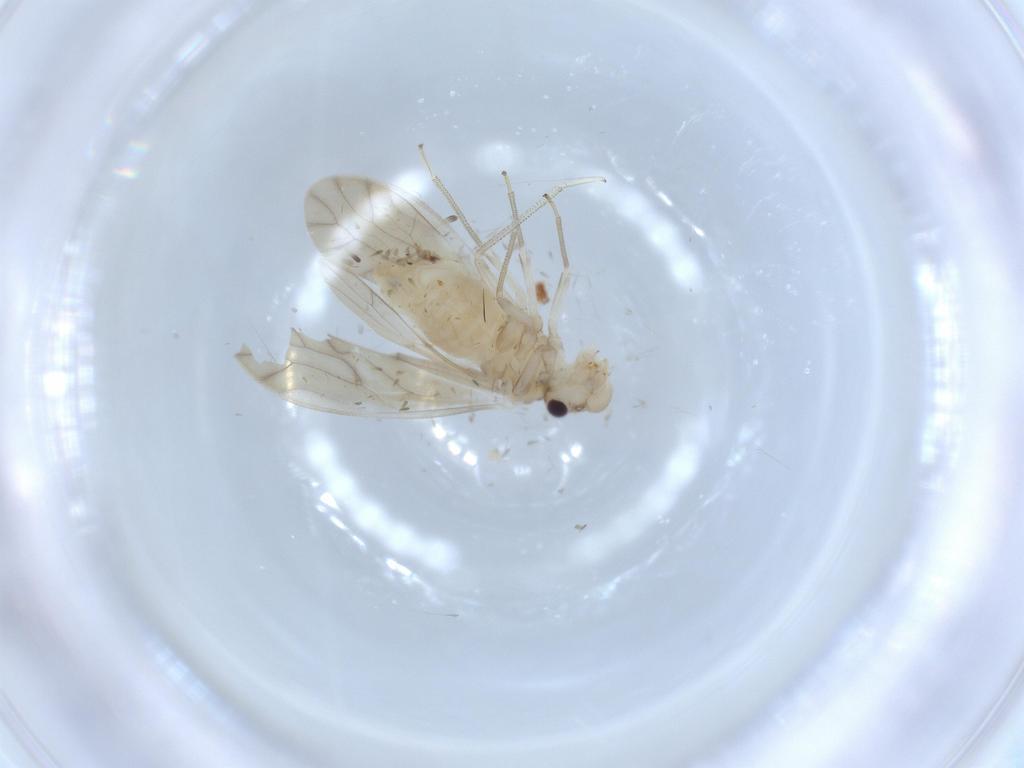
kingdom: Animalia
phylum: Arthropoda
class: Insecta
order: Psocodea
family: Caeciliusidae
